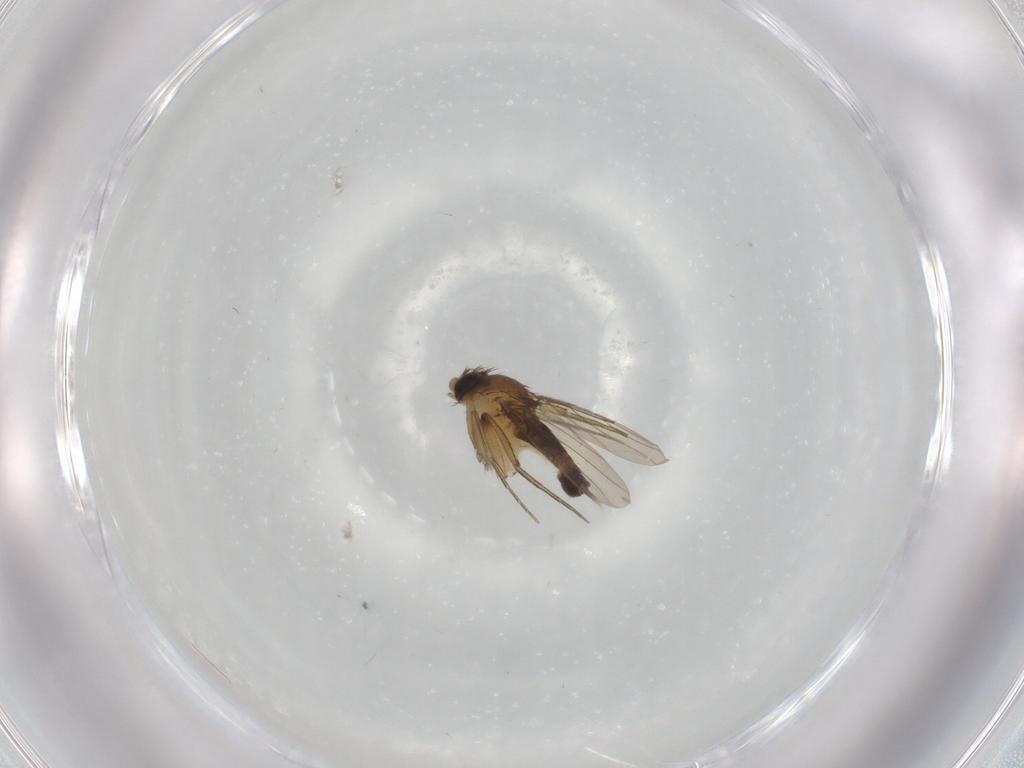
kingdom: Animalia
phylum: Arthropoda
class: Insecta
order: Diptera
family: Phoridae
